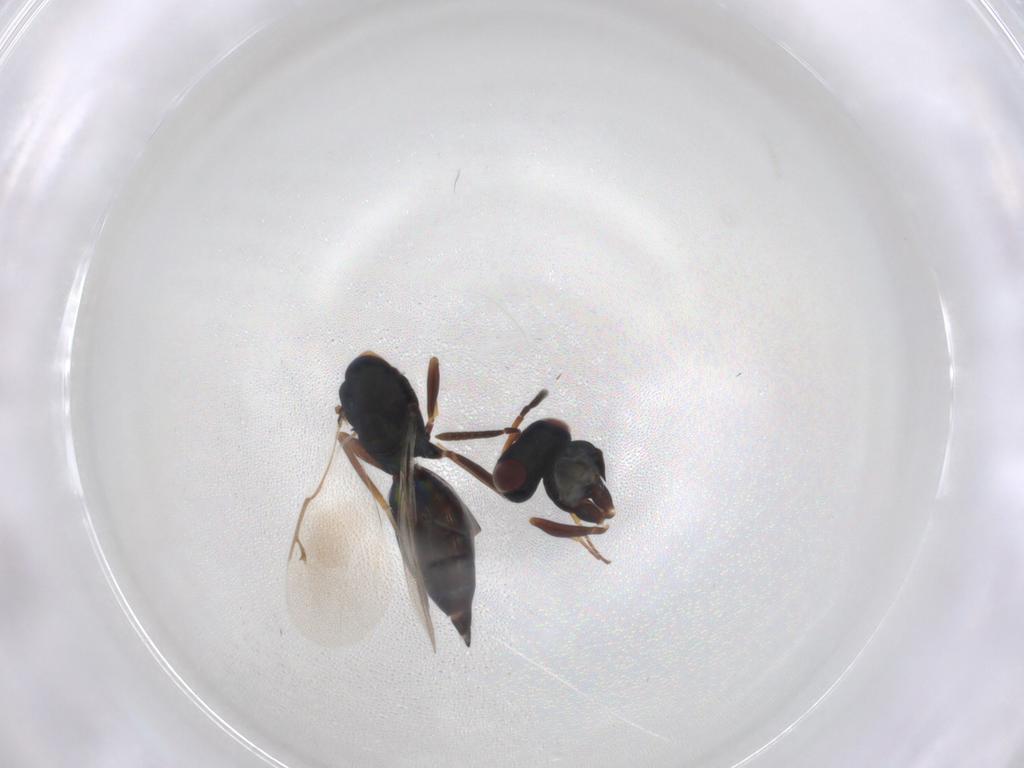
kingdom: Animalia
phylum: Arthropoda
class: Insecta
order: Hymenoptera
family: Pteromalidae
